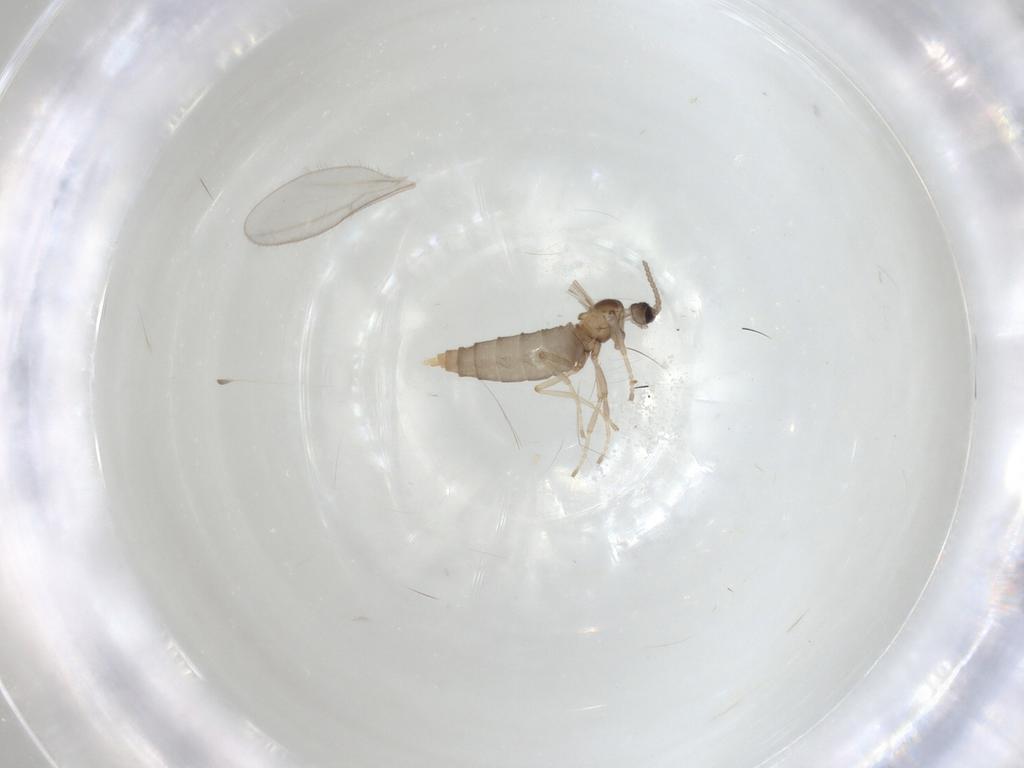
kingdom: Animalia
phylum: Arthropoda
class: Insecta
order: Diptera
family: Cecidomyiidae
